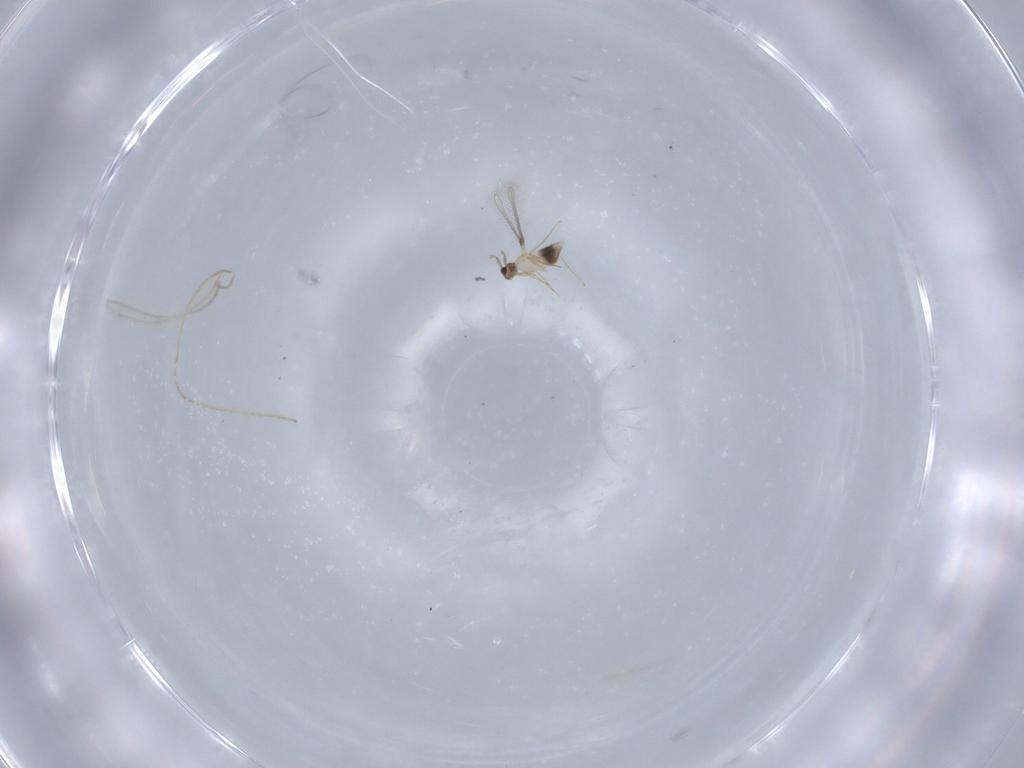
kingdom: Animalia
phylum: Arthropoda
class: Insecta
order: Hymenoptera
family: Mymaridae
